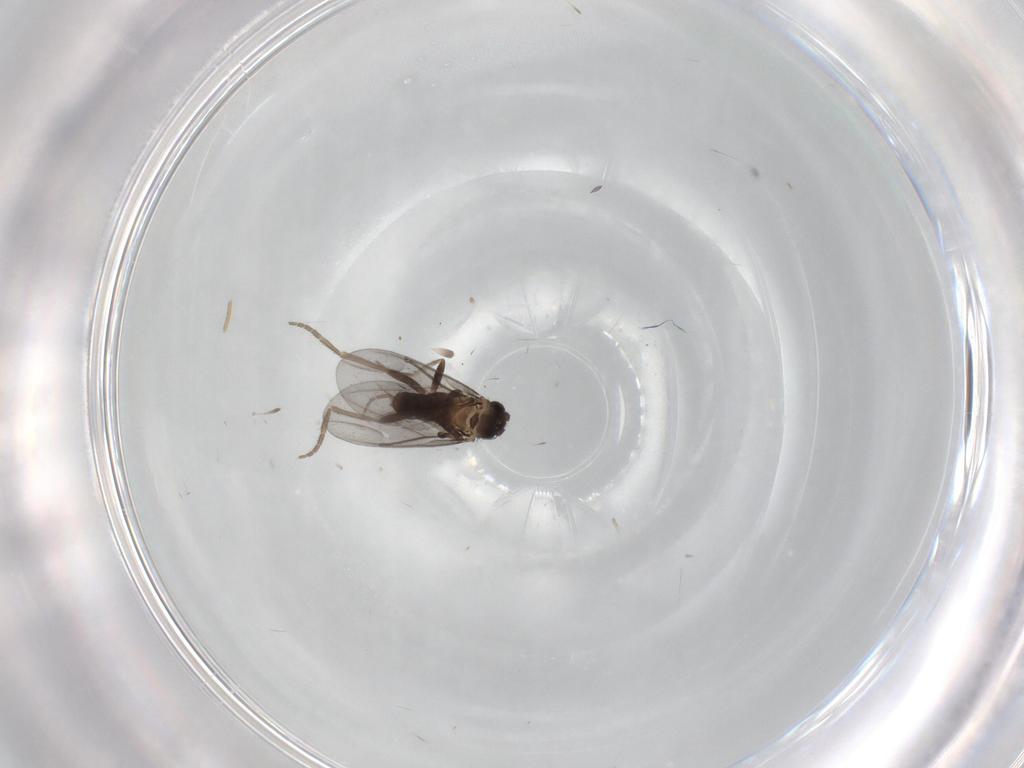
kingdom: Animalia
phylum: Arthropoda
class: Insecta
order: Diptera
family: Phoridae
